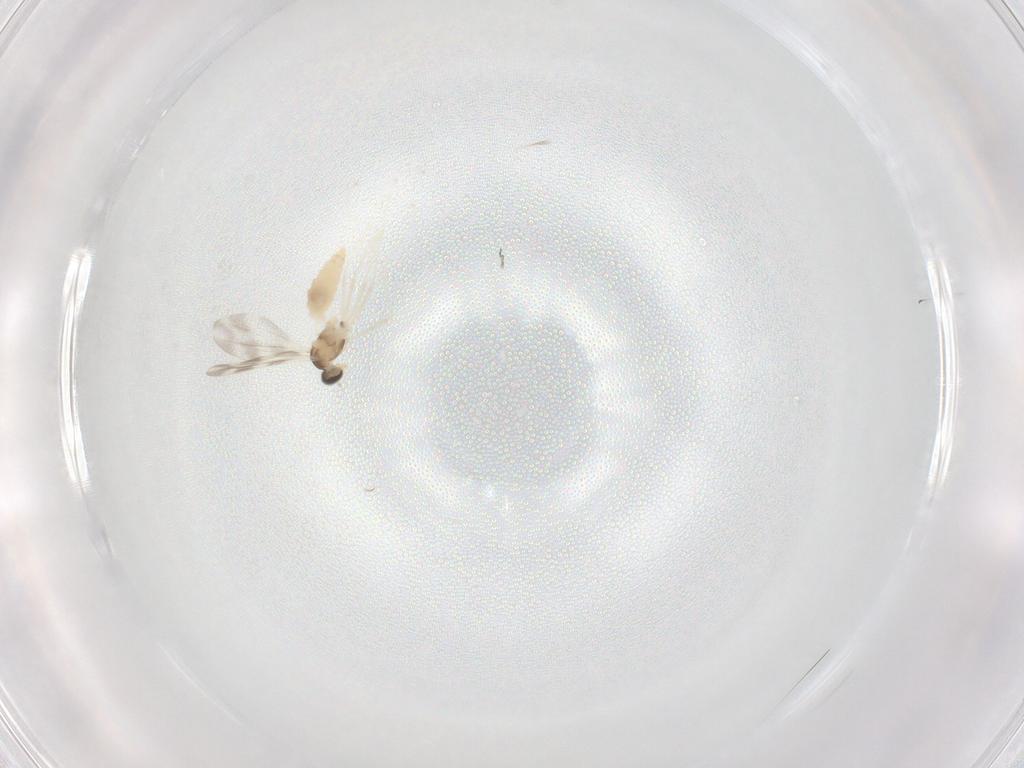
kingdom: Animalia
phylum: Arthropoda
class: Insecta
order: Diptera
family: Cecidomyiidae
